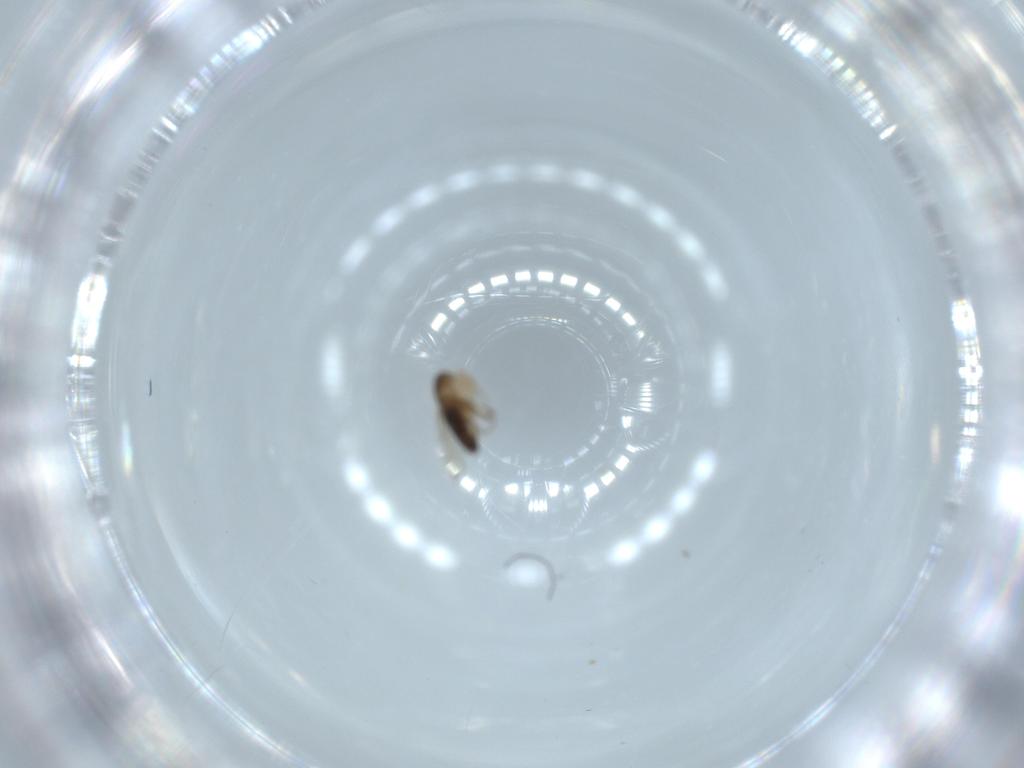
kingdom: Animalia
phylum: Arthropoda
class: Insecta
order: Diptera
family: Phoridae
